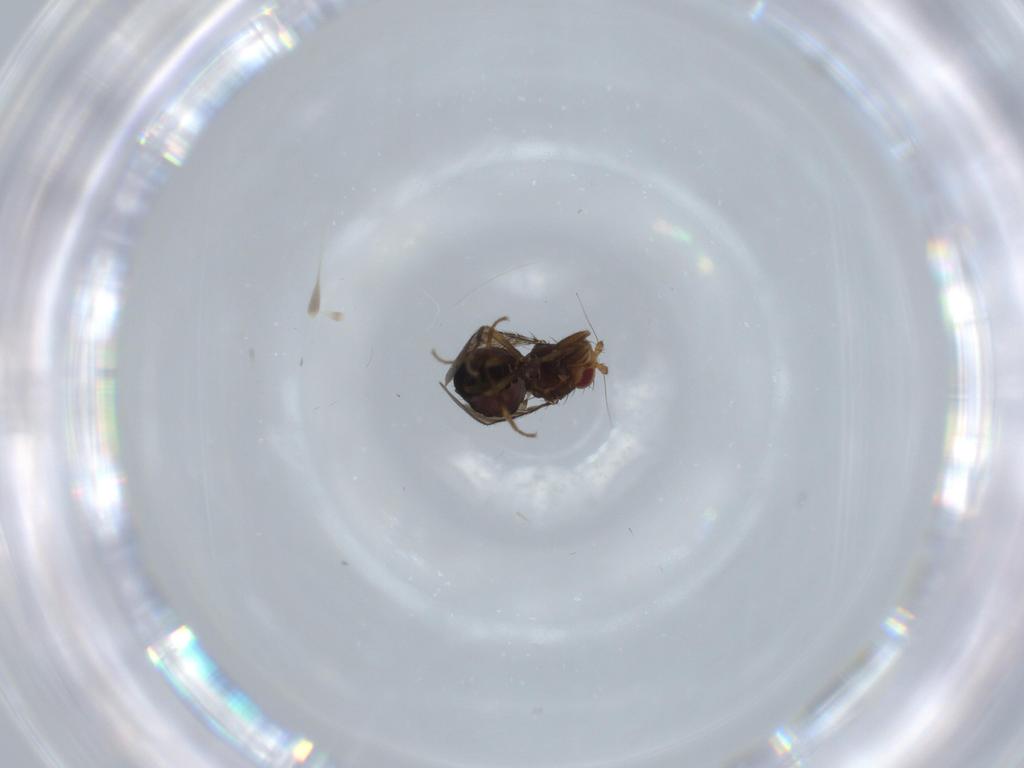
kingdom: Animalia
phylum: Arthropoda
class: Insecta
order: Diptera
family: Sphaeroceridae
